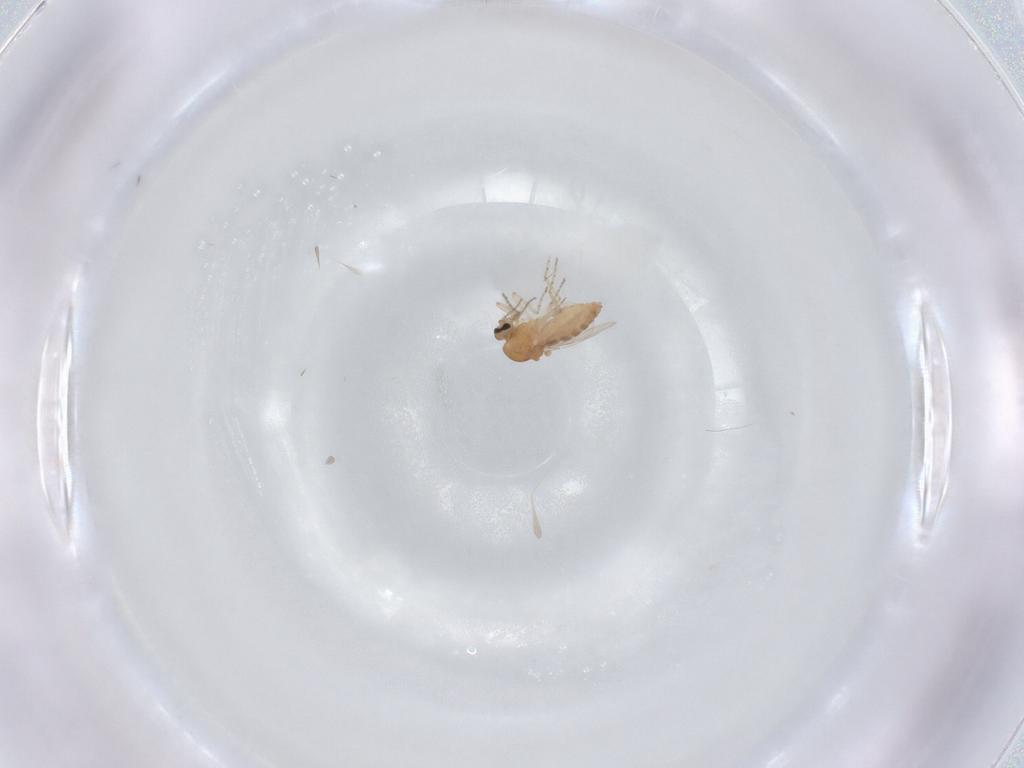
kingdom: Animalia
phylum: Arthropoda
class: Insecta
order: Diptera
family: Ceratopogonidae
